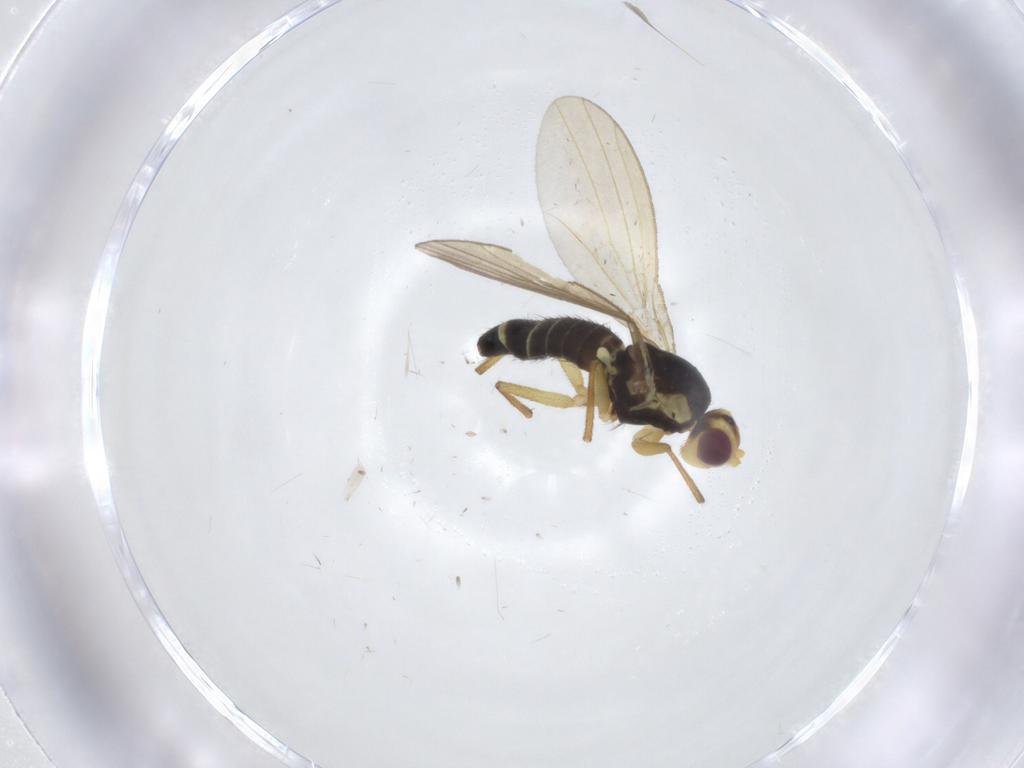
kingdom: Animalia
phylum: Arthropoda
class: Insecta
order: Diptera
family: Agromyzidae
